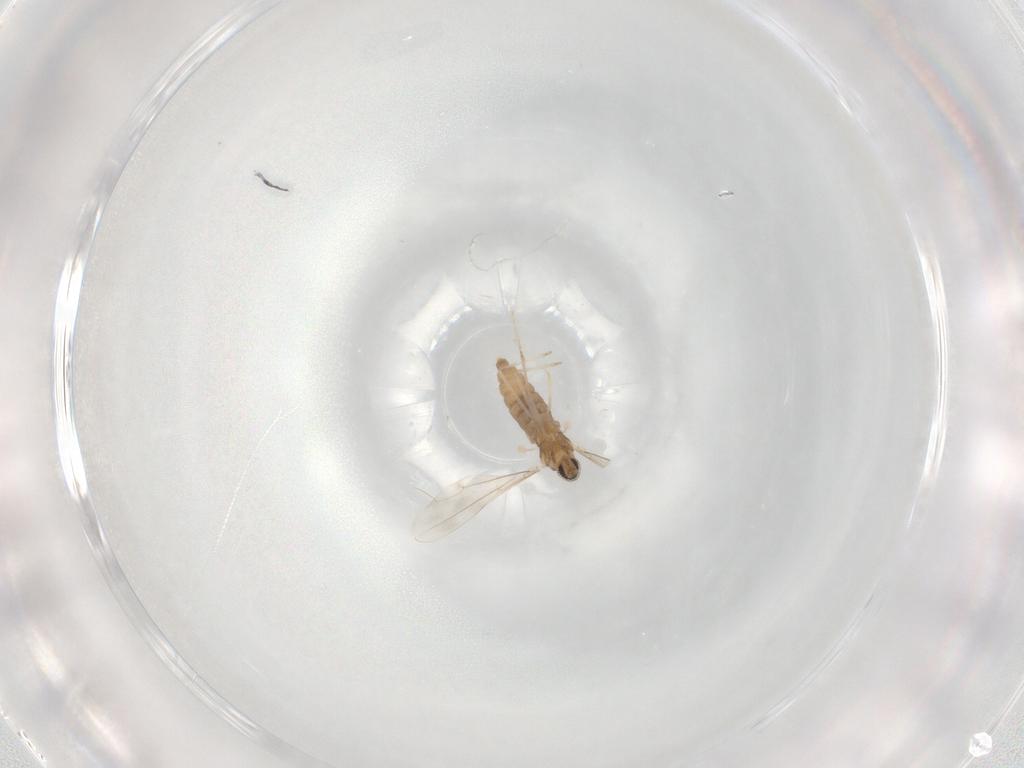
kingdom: Animalia
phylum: Arthropoda
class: Insecta
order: Diptera
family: Cecidomyiidae
